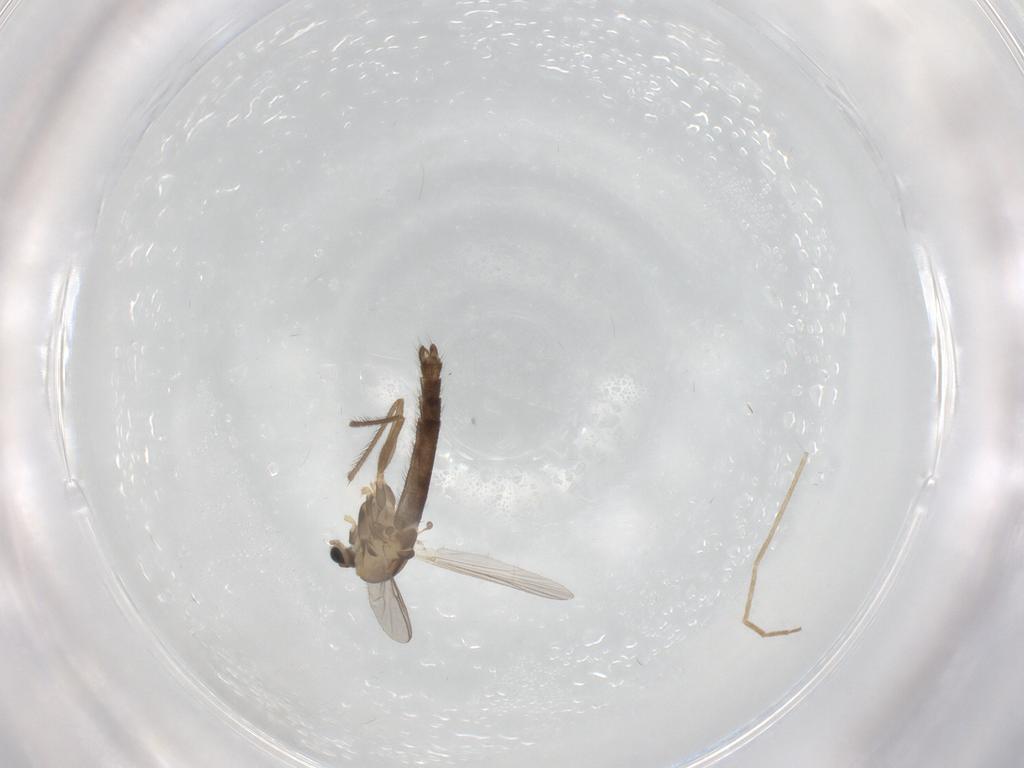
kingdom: Animalia
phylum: Arthropoda
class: Insecta
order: Diptera
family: Chironomidae
